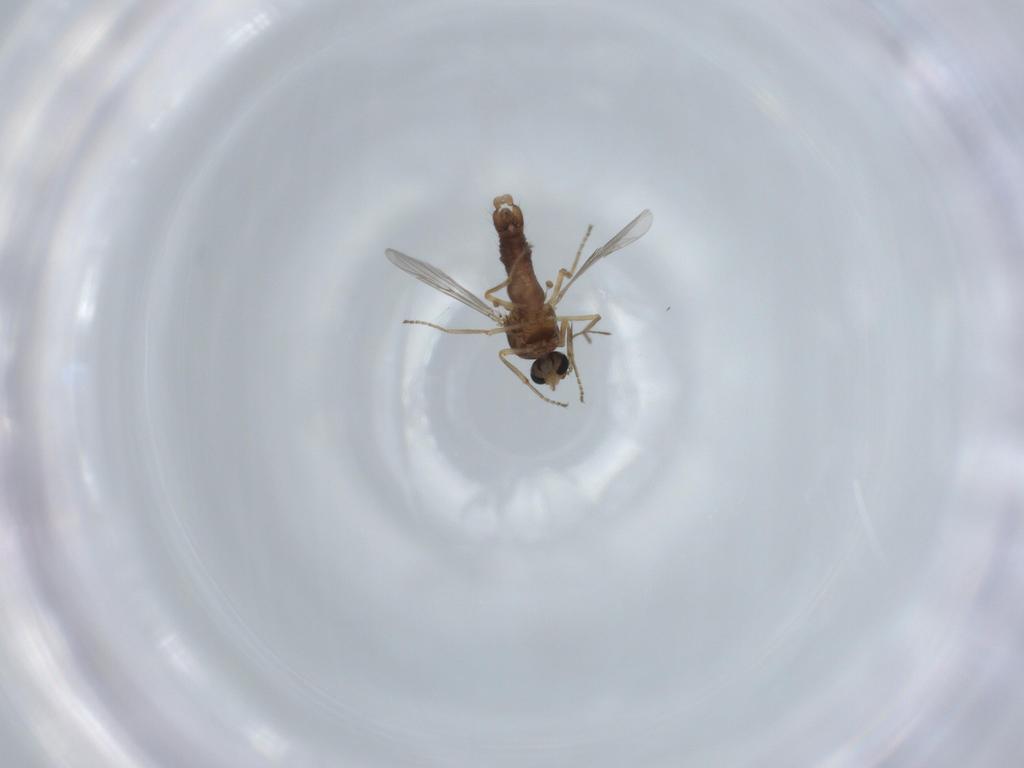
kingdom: Animalia
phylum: Arthropoda
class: Insecta
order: Diptera
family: Ceratopogonidae
